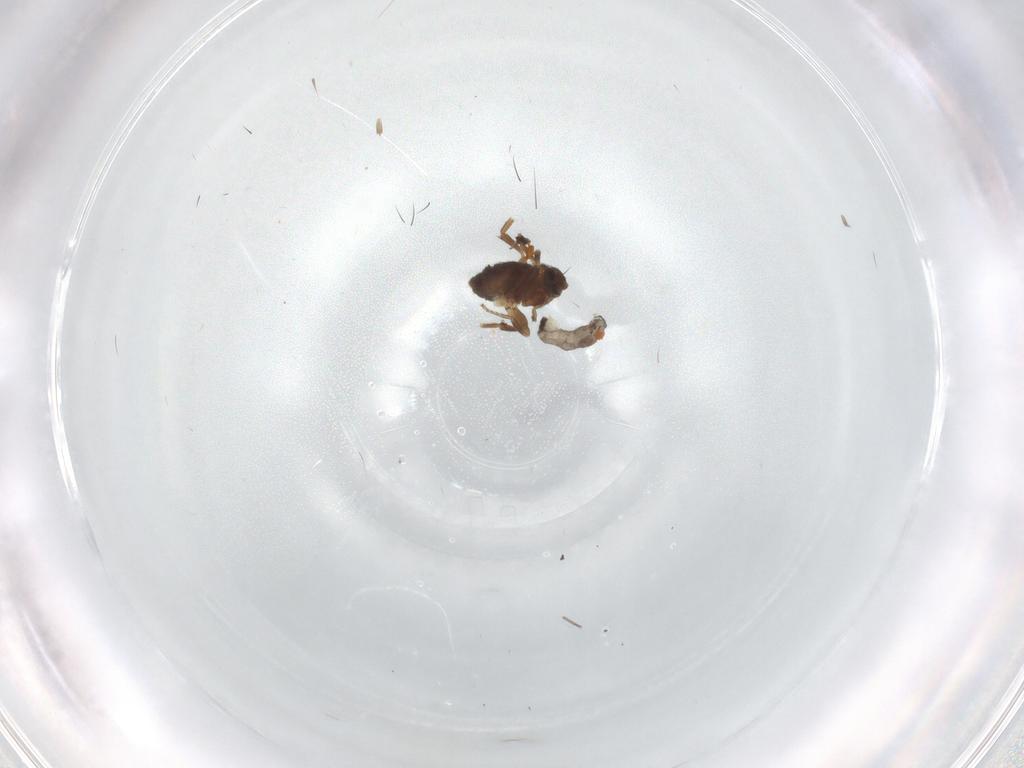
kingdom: Animalia
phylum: Arthropoda
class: Insecta
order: Diptera
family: Sciaridae
